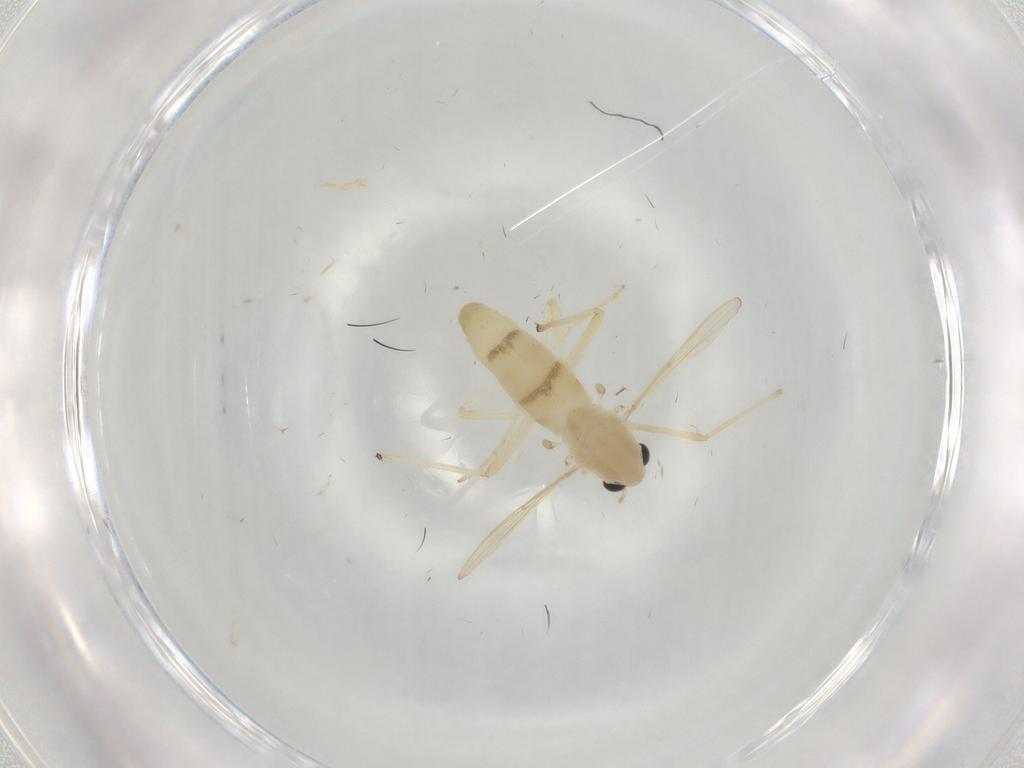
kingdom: Animalia
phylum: Arthropoda
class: Insecta
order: Diptera
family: Chironomidae
